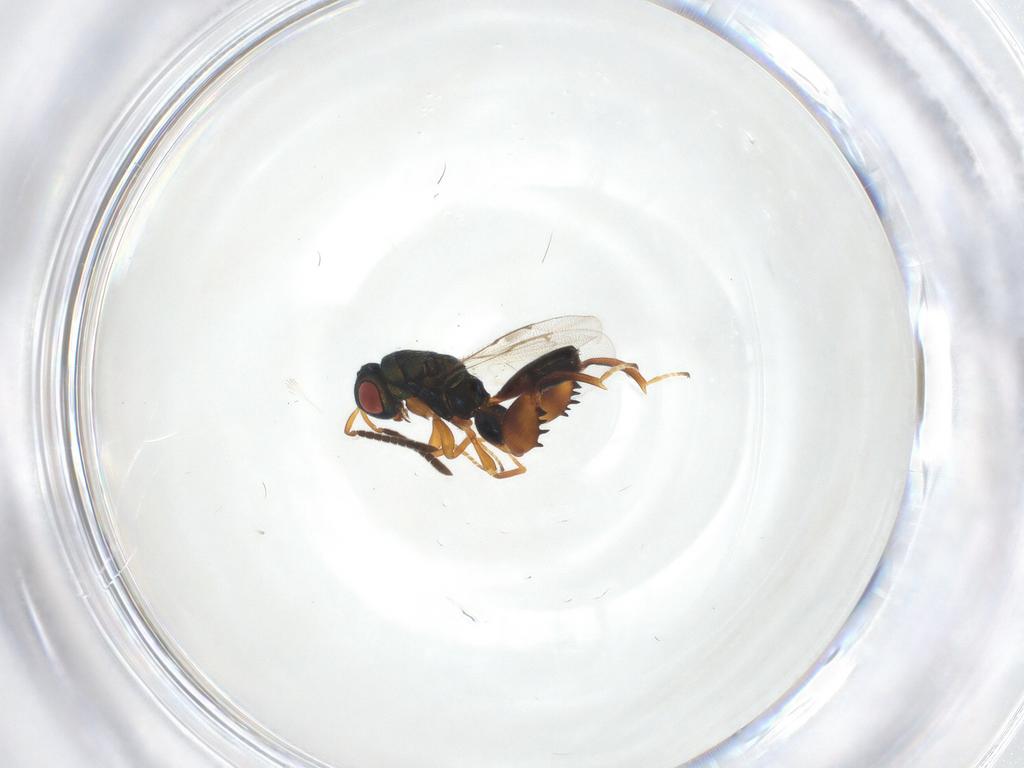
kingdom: Animalia
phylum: Arthropoda
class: Insecta
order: Hymenoptera
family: Torymidae
